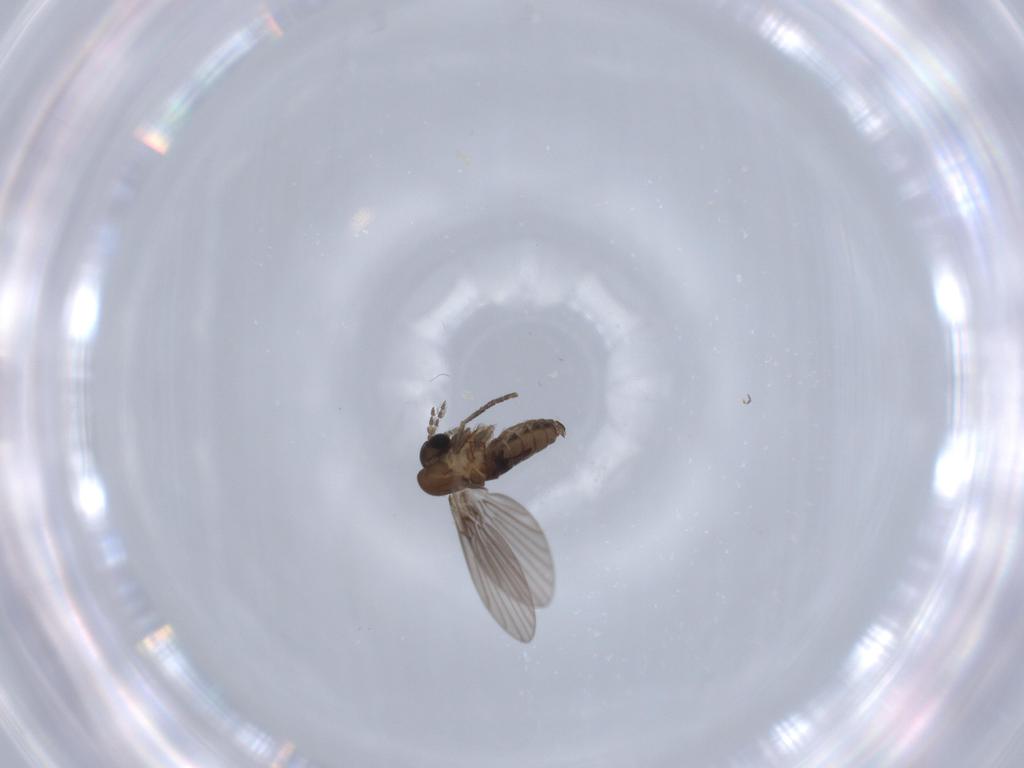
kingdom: Animalia
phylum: Arthropoda
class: Insecta
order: Diptera
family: Psychodidae
